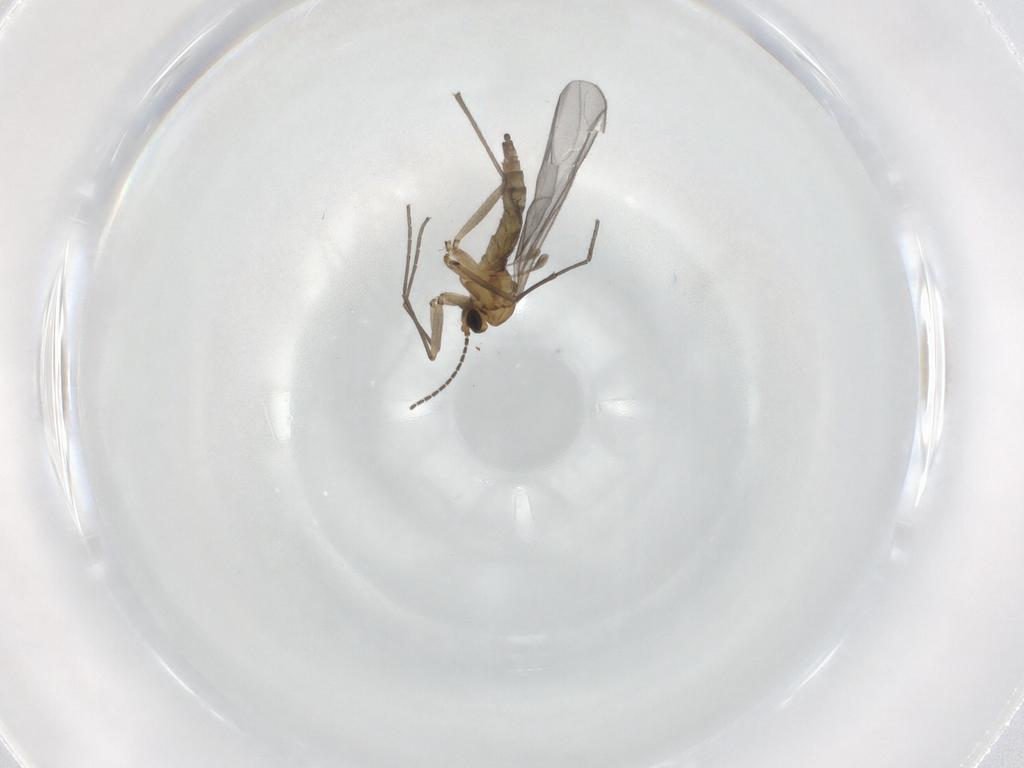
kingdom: Animalia
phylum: Arthropoda
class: Insecta
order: Diptera
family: Sciaridae
